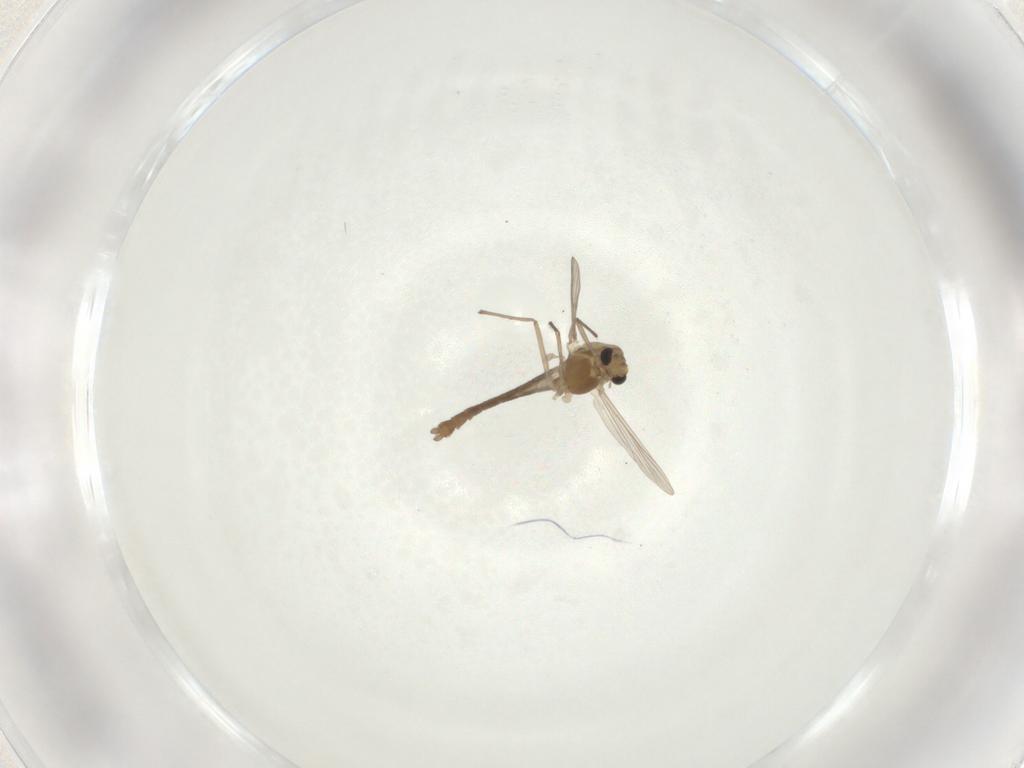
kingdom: Animalia
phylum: Arthropoda
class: Insecta
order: Diptera
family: Chironomidae
